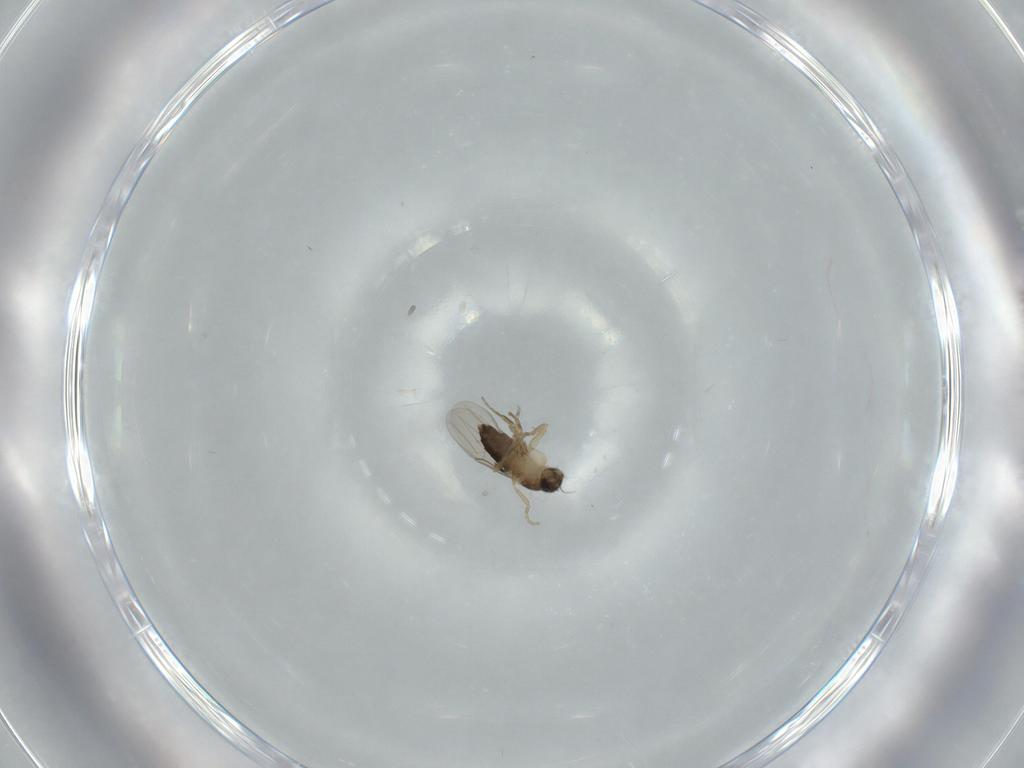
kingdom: Animalia
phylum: Arthropoda
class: Insecta
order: Diptera
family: Phoridae
